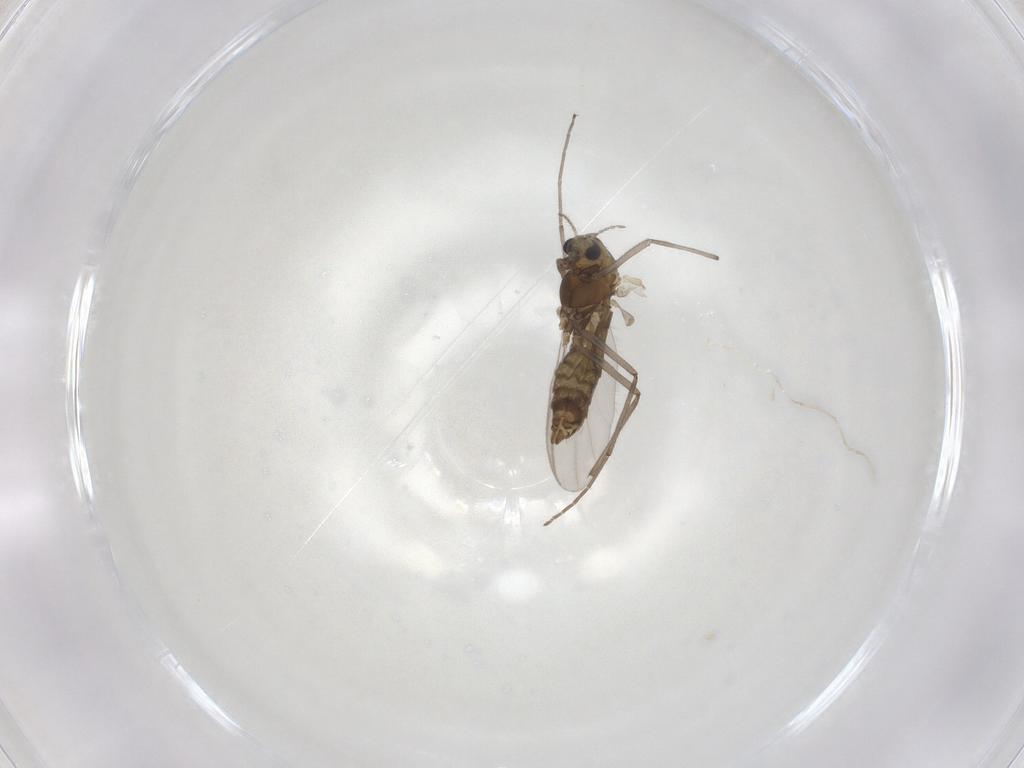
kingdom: Animalia
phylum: Arthropoda
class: Insecta
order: Diptera
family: Chironomidae
